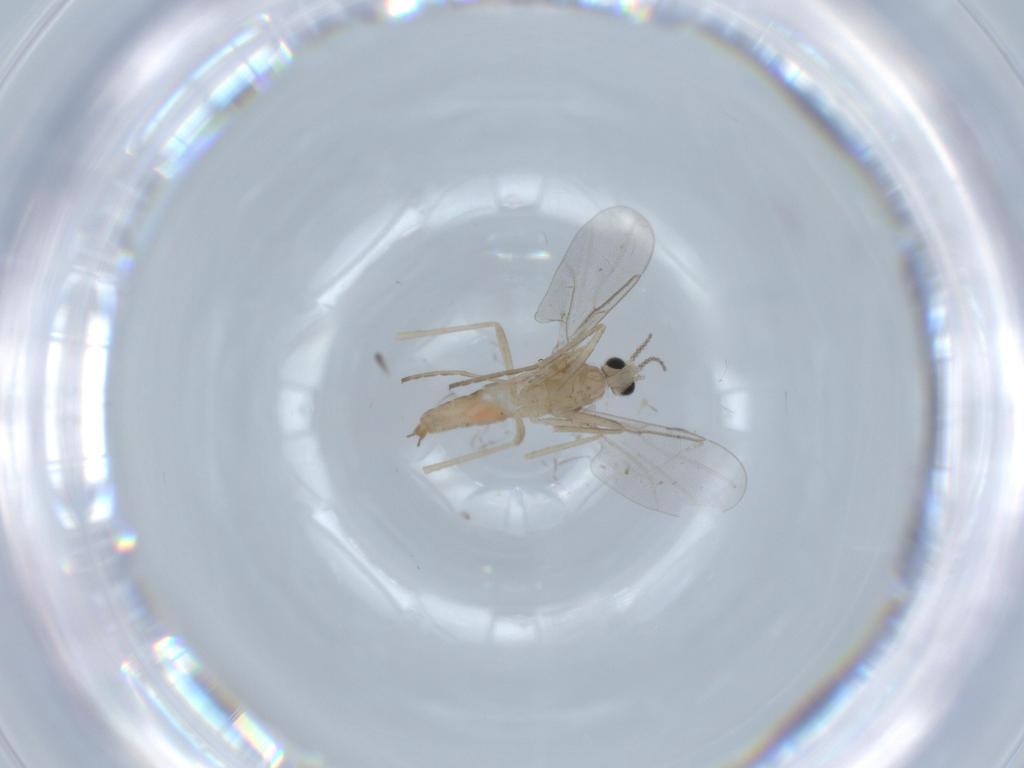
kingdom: Animalia
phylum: Arthropoda
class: Insecta
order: Diptera
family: Cecidomyiidae
